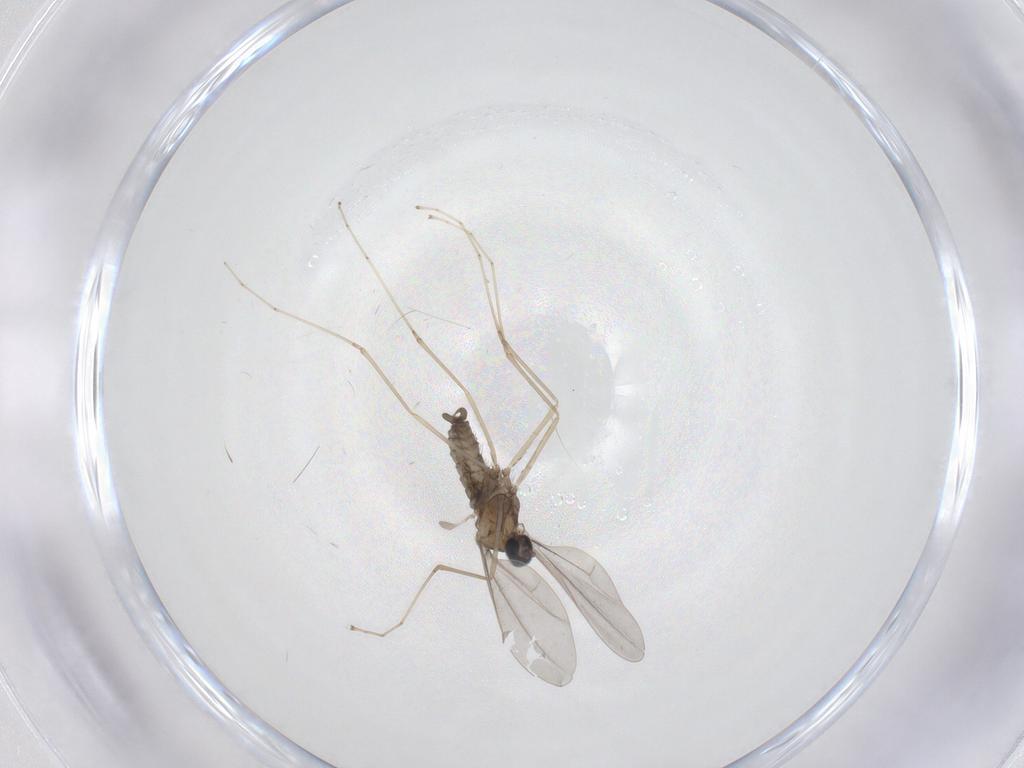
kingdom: Animalia
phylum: Arthropoda
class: Insecta
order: Diptera
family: Cecidomyiidae
